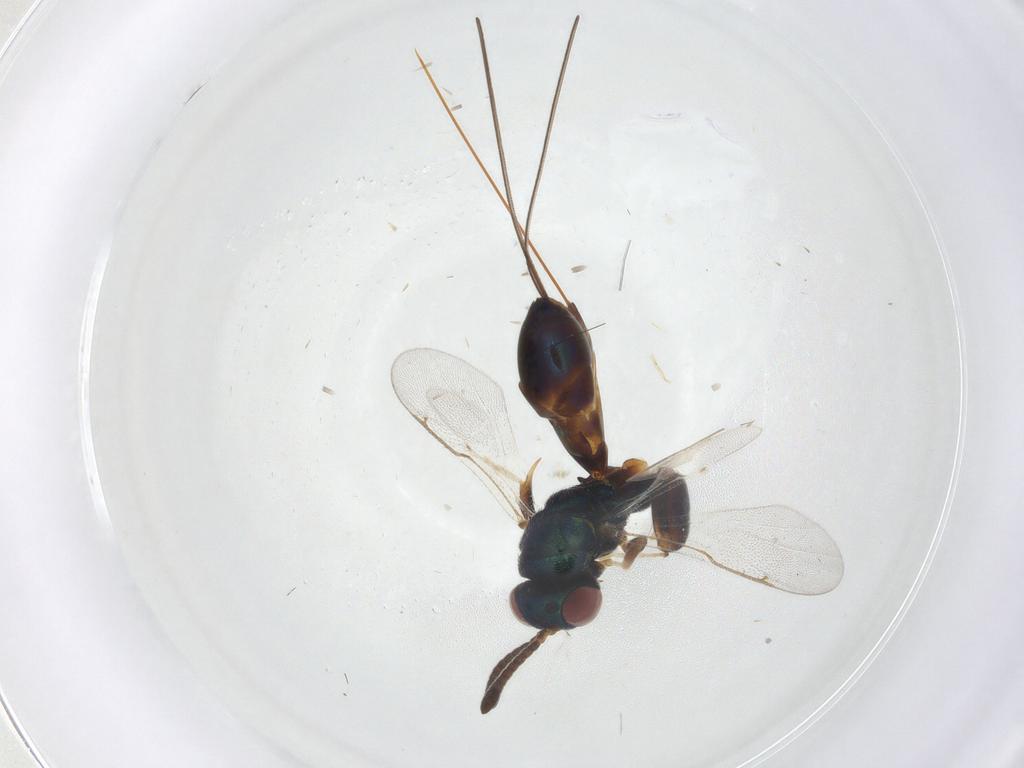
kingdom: Animalia
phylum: Arthropoda
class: Insecta
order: Hymenoptera
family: Torymidae
